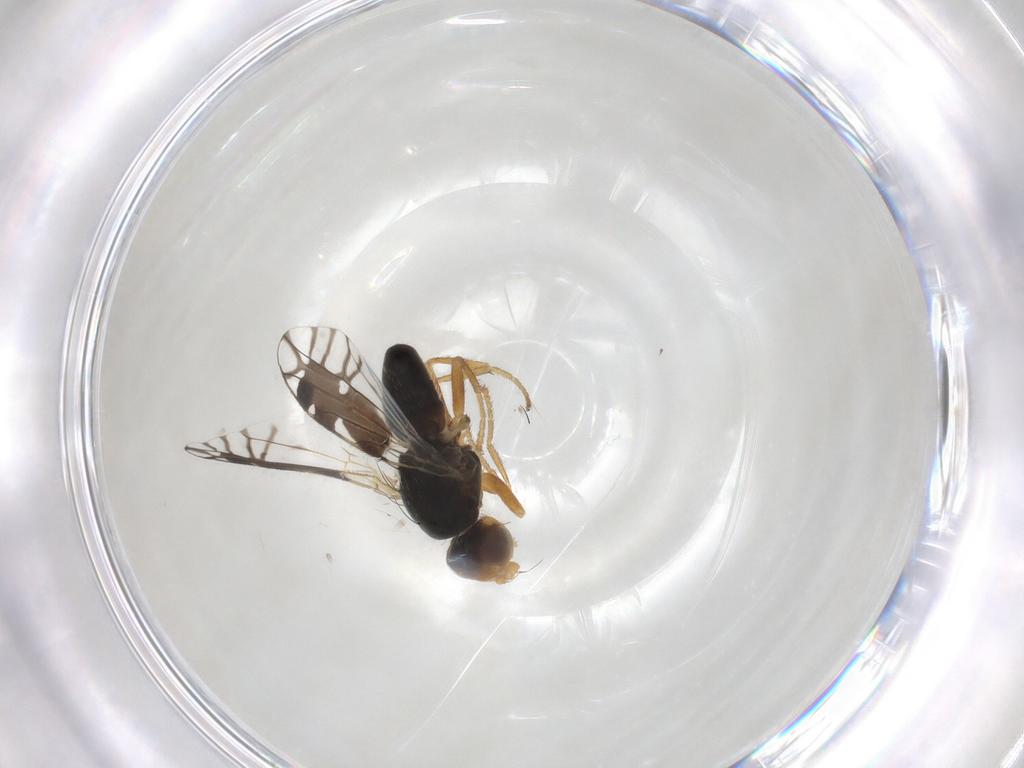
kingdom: Animalia
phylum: Arthropoda
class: Insecta
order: Diptera
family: Tephritidae
